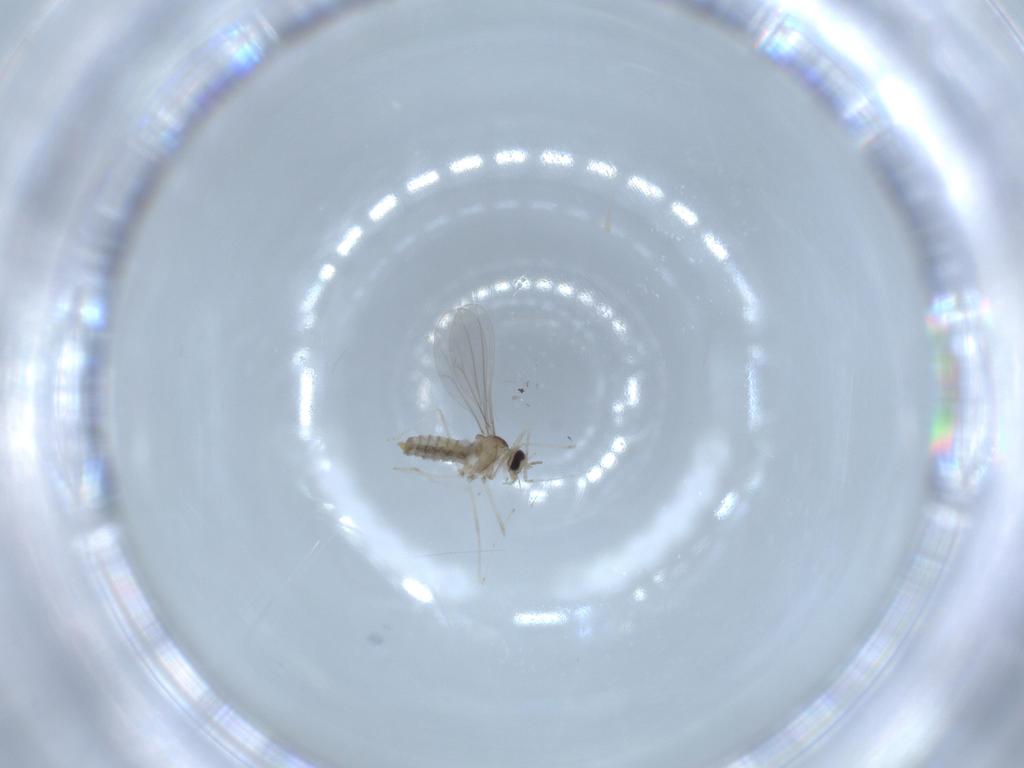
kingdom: Animalia
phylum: Arthropoda
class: Insecta
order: Diptera
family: Cecidomyiidae
